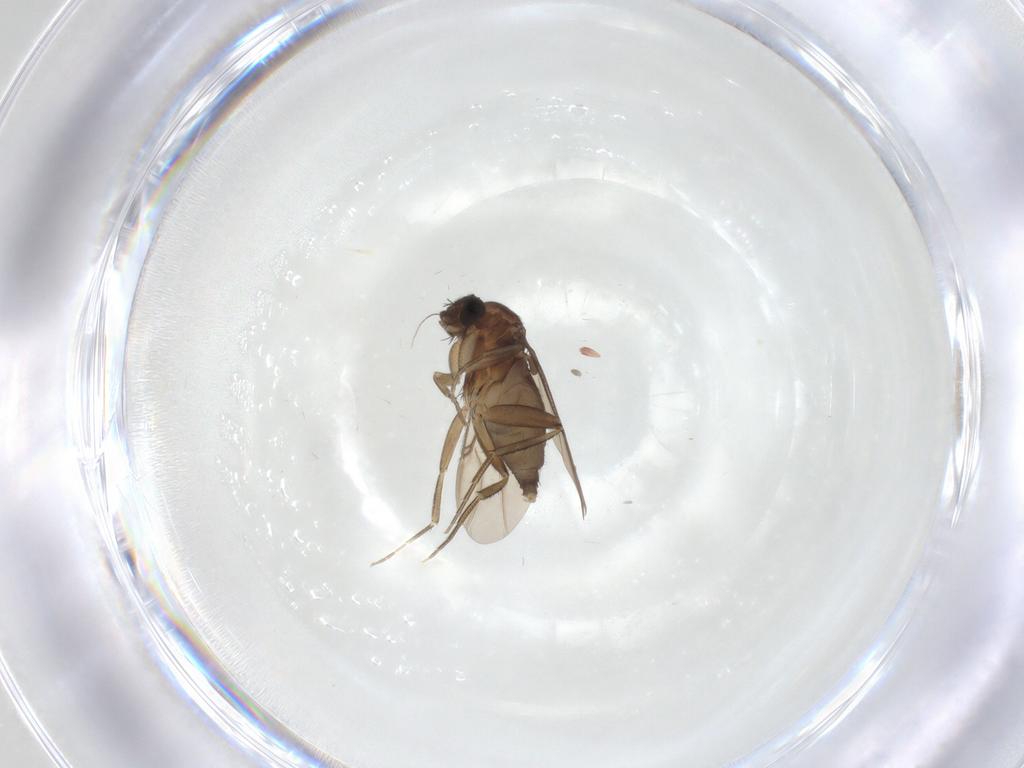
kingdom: Animalia
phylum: Arthropoda
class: Insecta
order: Diptera
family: Phoridae
